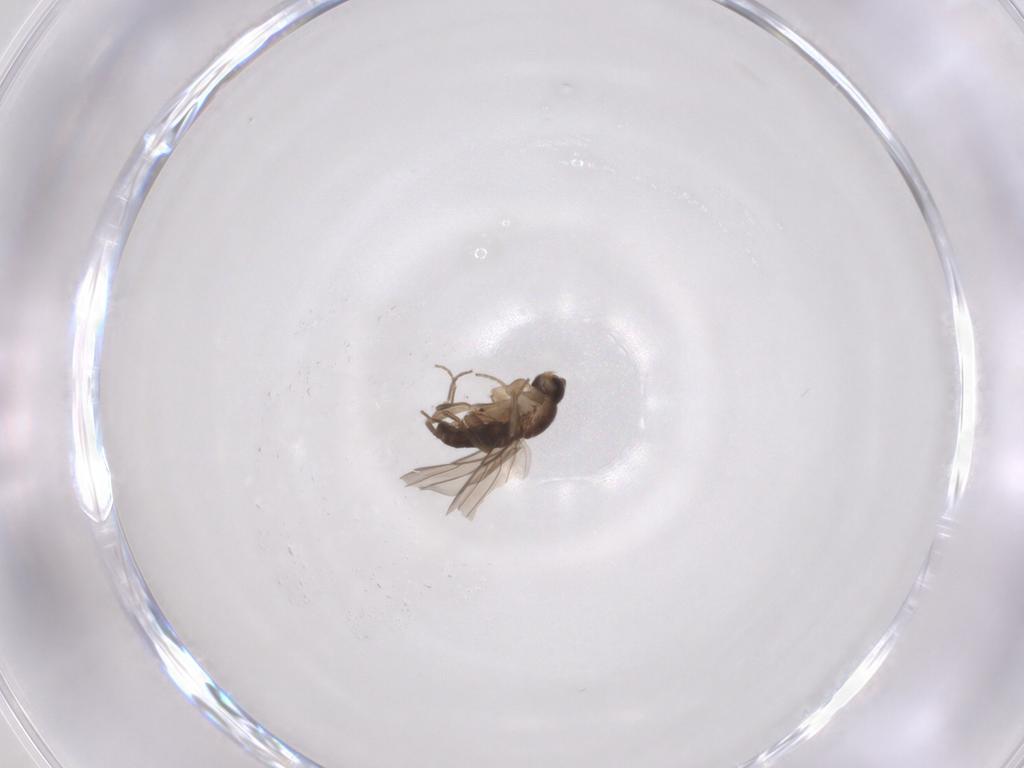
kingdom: Animalia
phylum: Arthropoda
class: Insecta
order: Diptera
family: Phoridae
